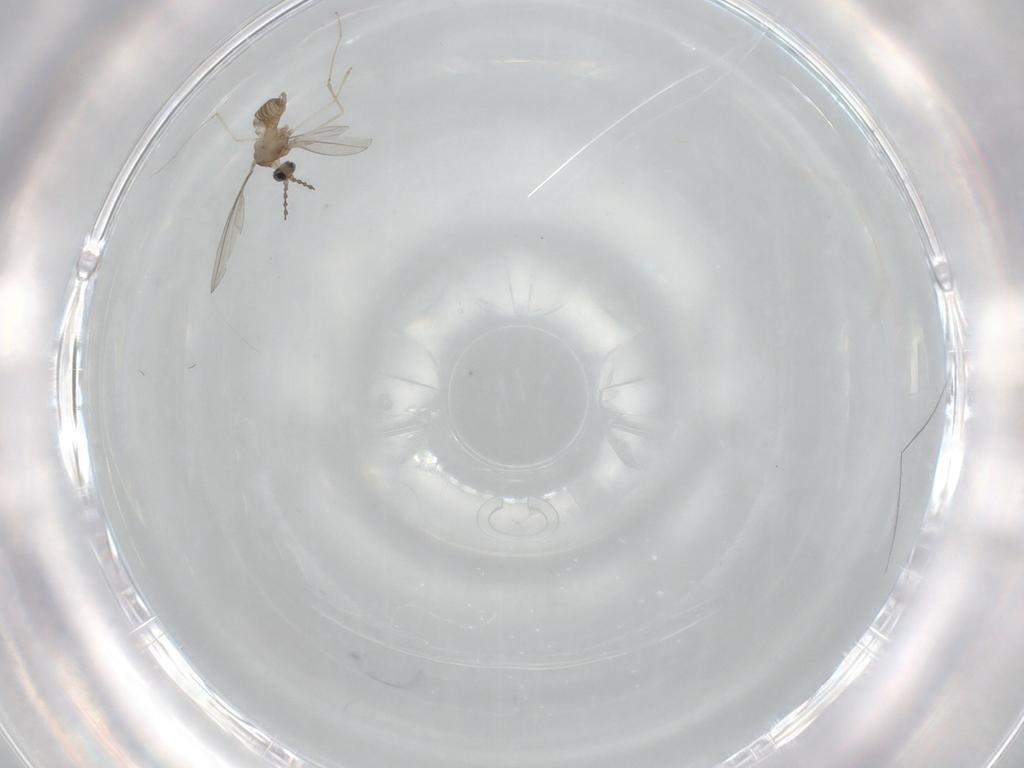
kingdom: Animalia
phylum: Arthropoda
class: Insecta
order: Diptera
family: Cecidomyiidae
